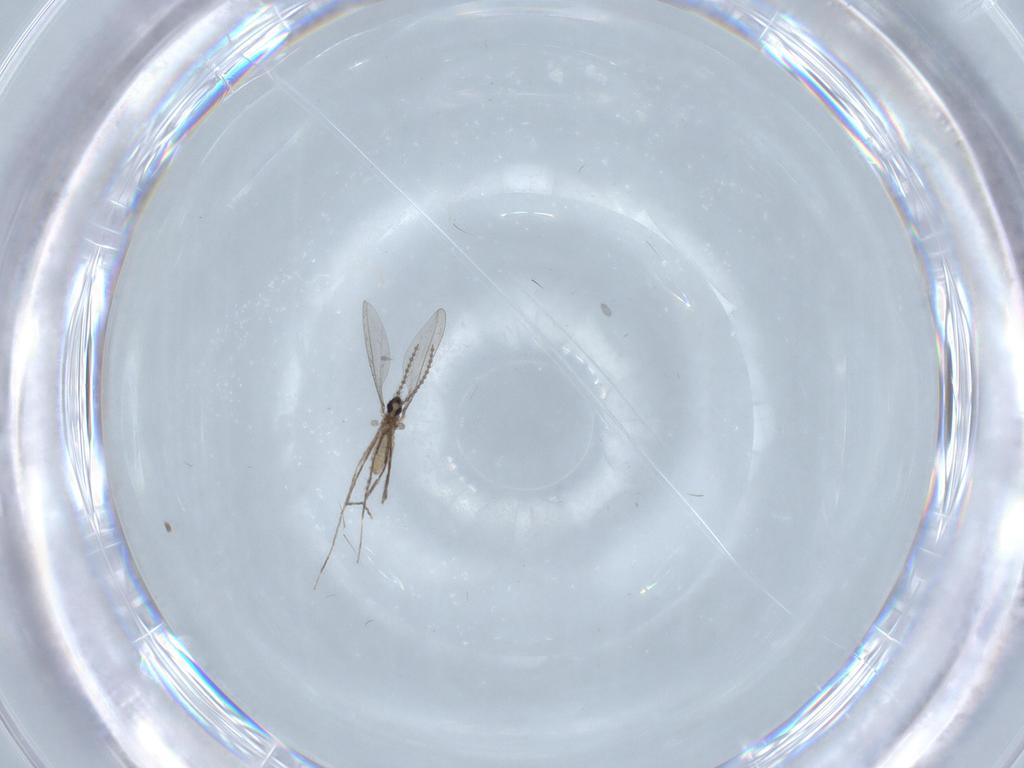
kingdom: Animalia
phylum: Arthropoda
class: Insecta
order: Diptera
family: Cecidomyiidae
